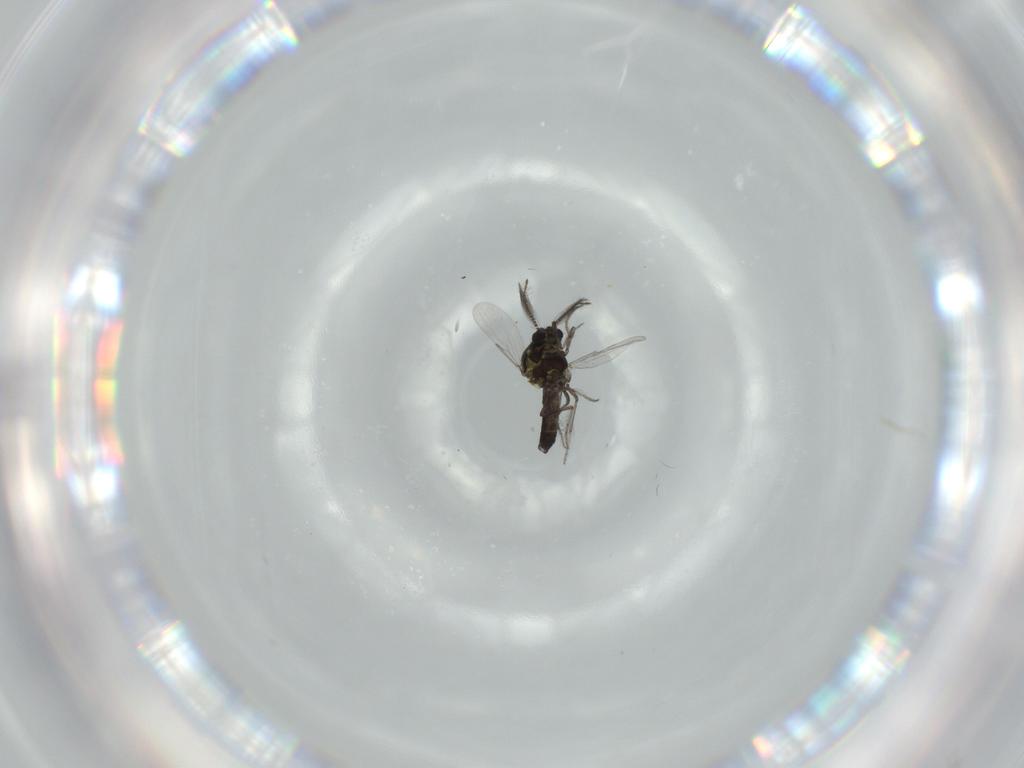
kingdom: Animalia
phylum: Arthropoda
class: Insecta
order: Diptera
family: Ceratopogonidae
